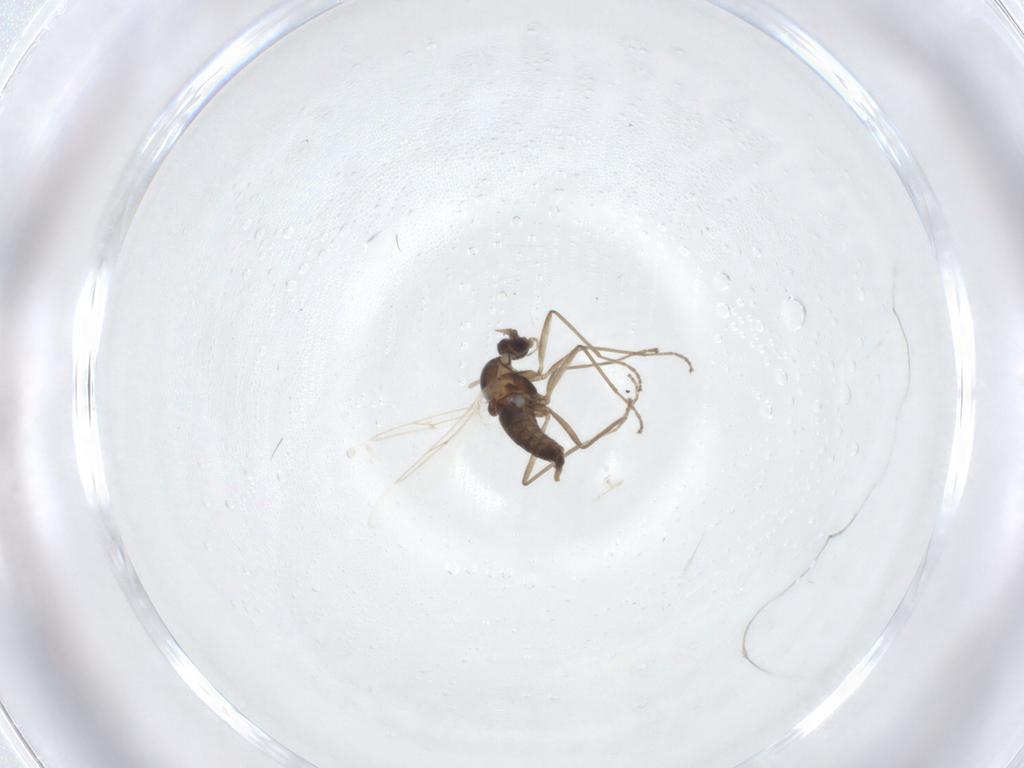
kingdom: Animalia
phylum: Arthropoda
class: Insecta
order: Diptera
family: Cecidomyiidae
